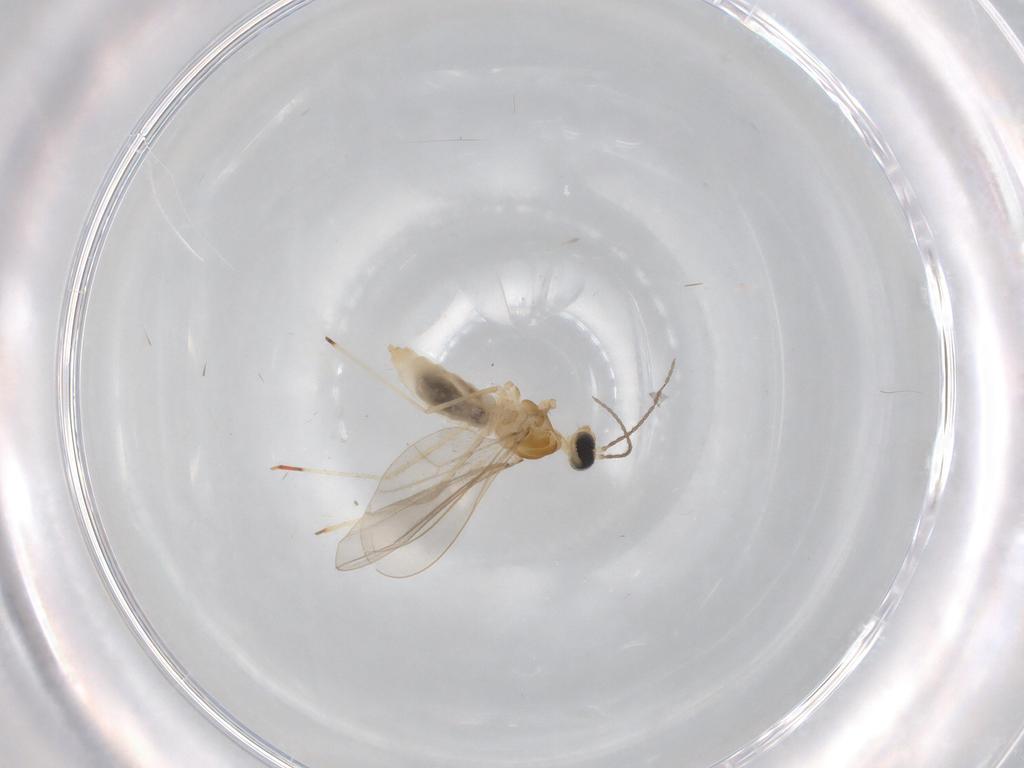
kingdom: Animalia
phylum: Arthropoda
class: Insecta
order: Diptera
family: Cecidomyiidae
